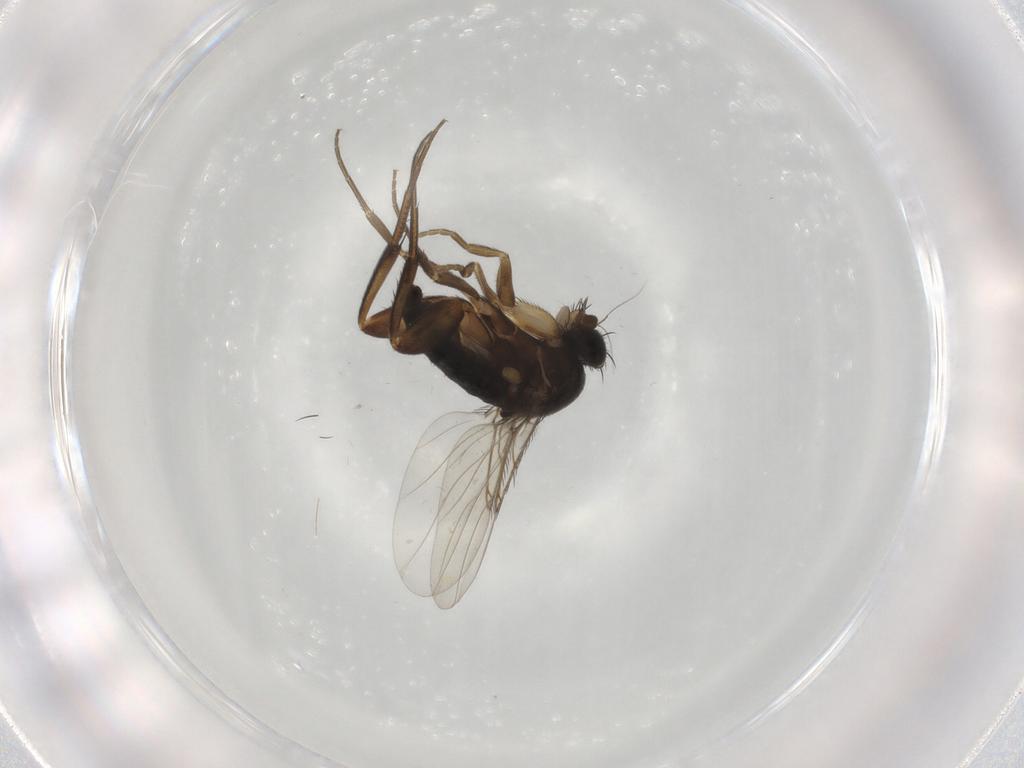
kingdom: Animalia
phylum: Arthropoda
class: Insecta
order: Diptera
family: Phoridae
